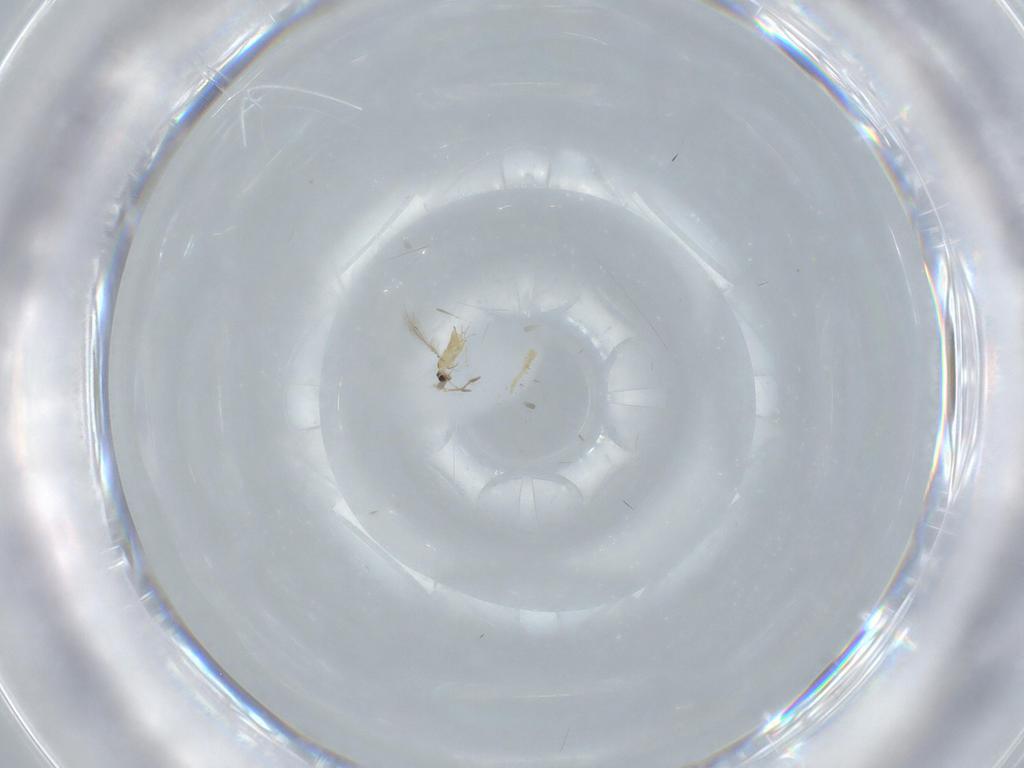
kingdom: Animalia
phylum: Arthropoda
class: Insecta
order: Hymenoptera
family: Mymaridae
